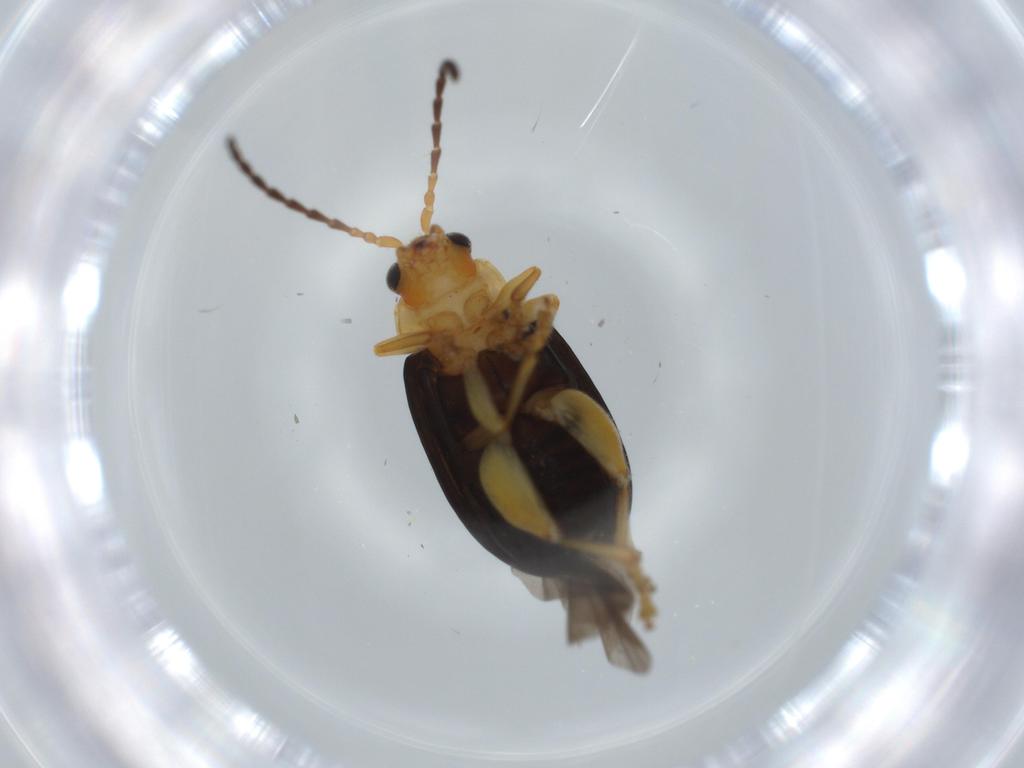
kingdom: Animalia
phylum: Arthropoda
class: Insecta
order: Coleoptera
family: Chrysomelidae
